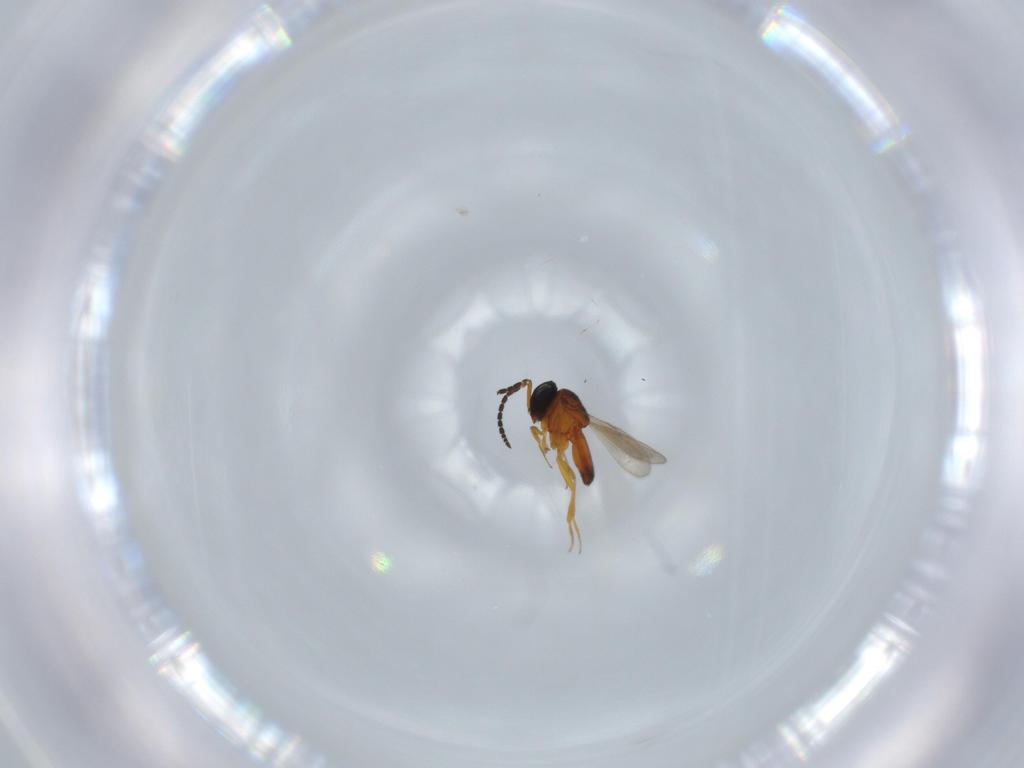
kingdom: Animalia
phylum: Arthropoda
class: Insecta
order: Hymenoptera
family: Scelionidae
